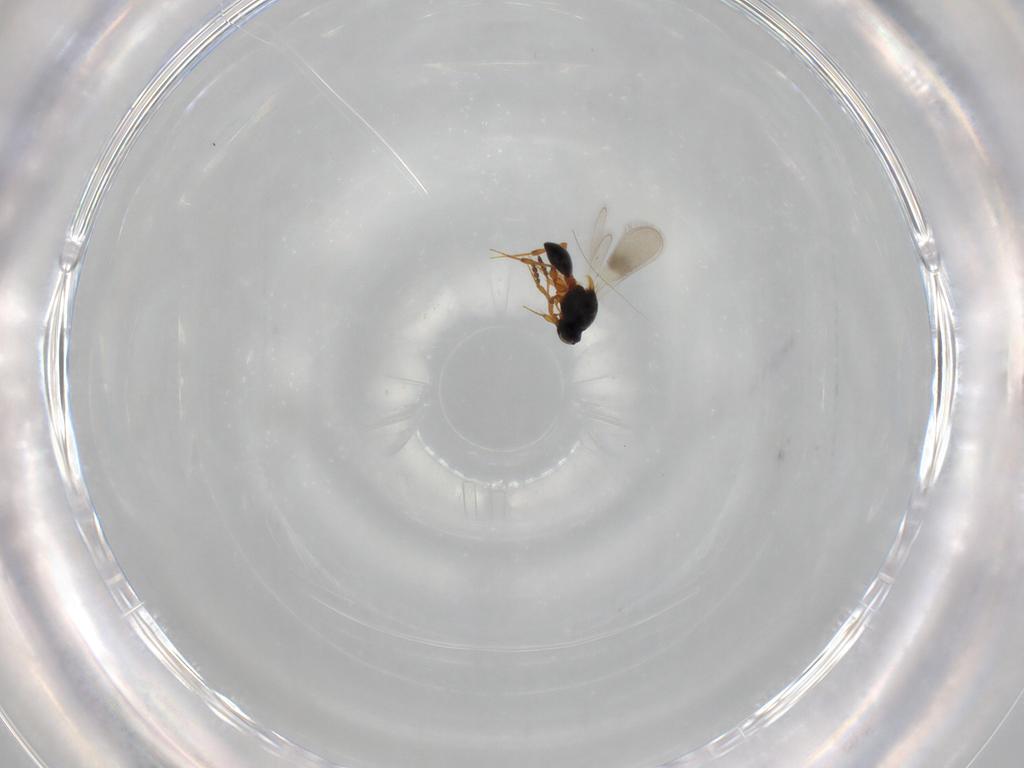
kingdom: Animalia
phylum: Arthropoda
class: Insecta
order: Hymenoptera
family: Platygastridae
